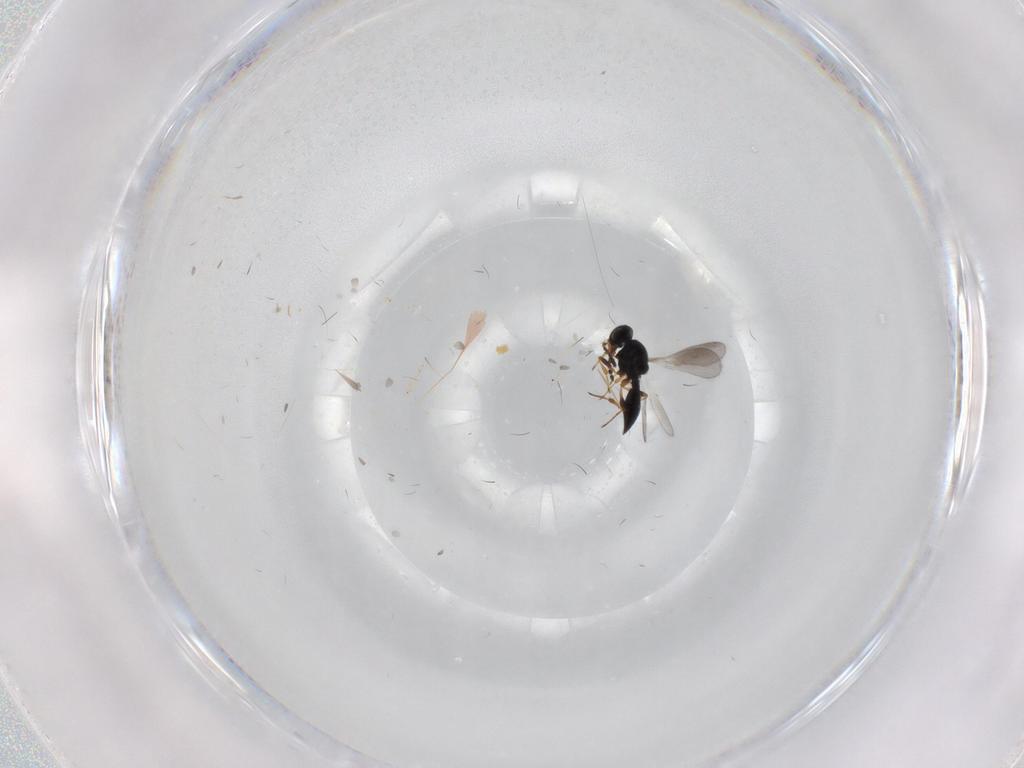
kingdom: Animalia
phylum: Arthropoda
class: Insecta
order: Hymenoptera
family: Platygastridae
